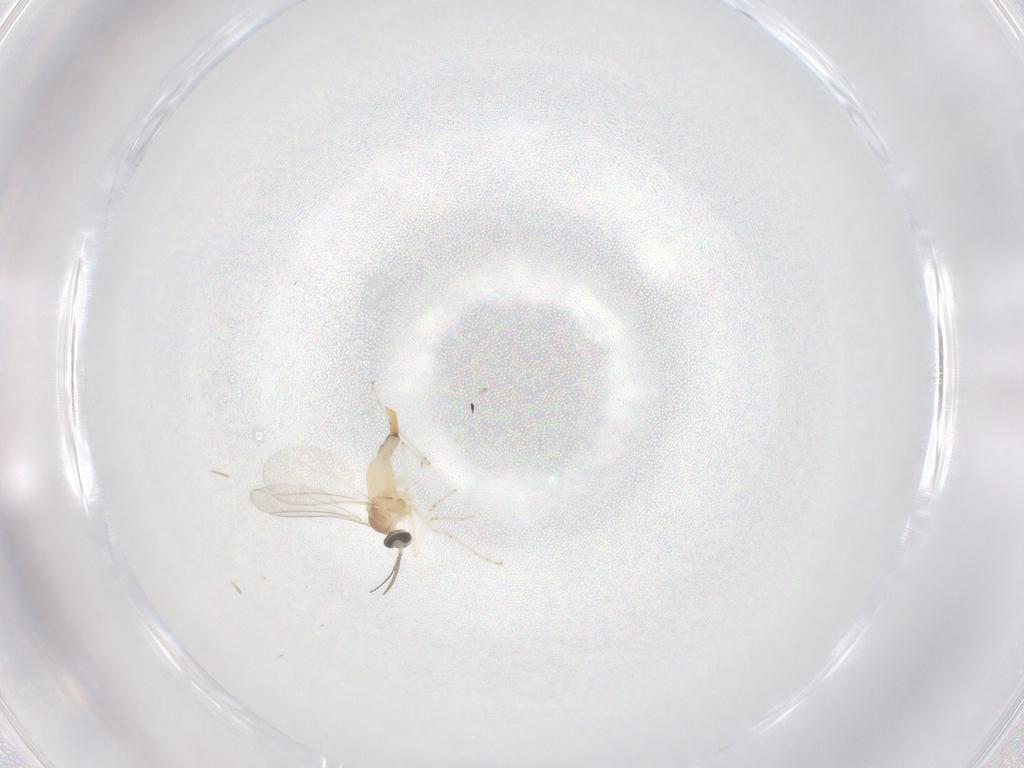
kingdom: Animalia
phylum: Arthropoda
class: Insecta
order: Diptera
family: Cecidomyiidae
